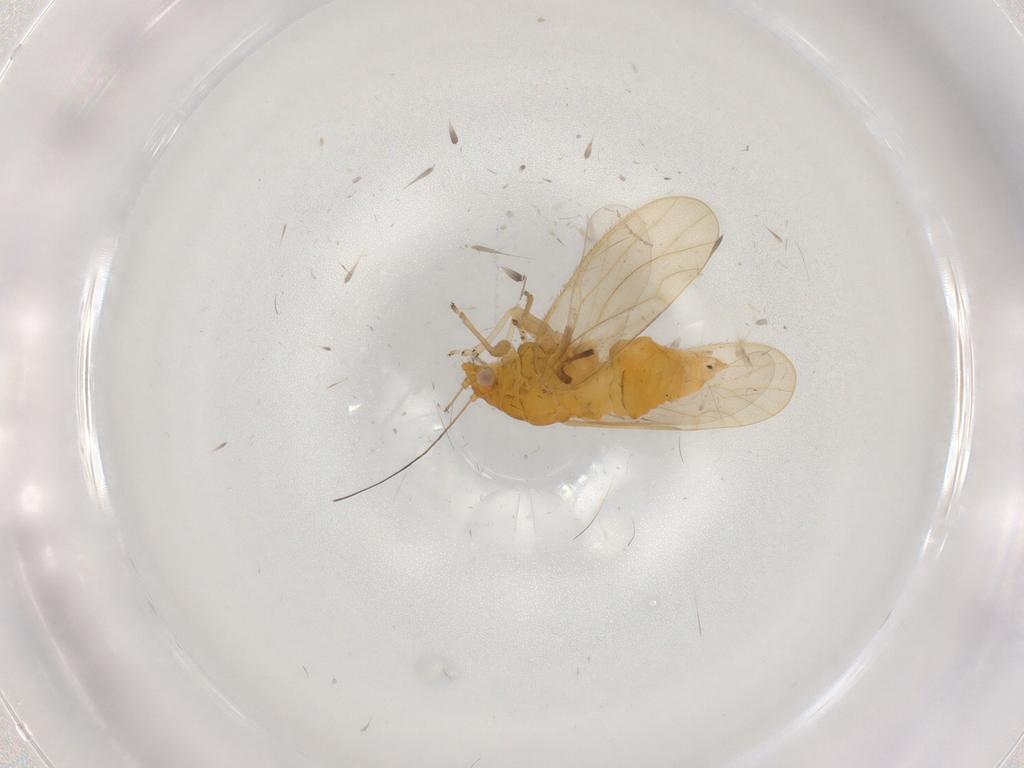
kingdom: Animalia
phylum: Arthropoda
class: Insecta
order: Hemiptera
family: Psyllidae
